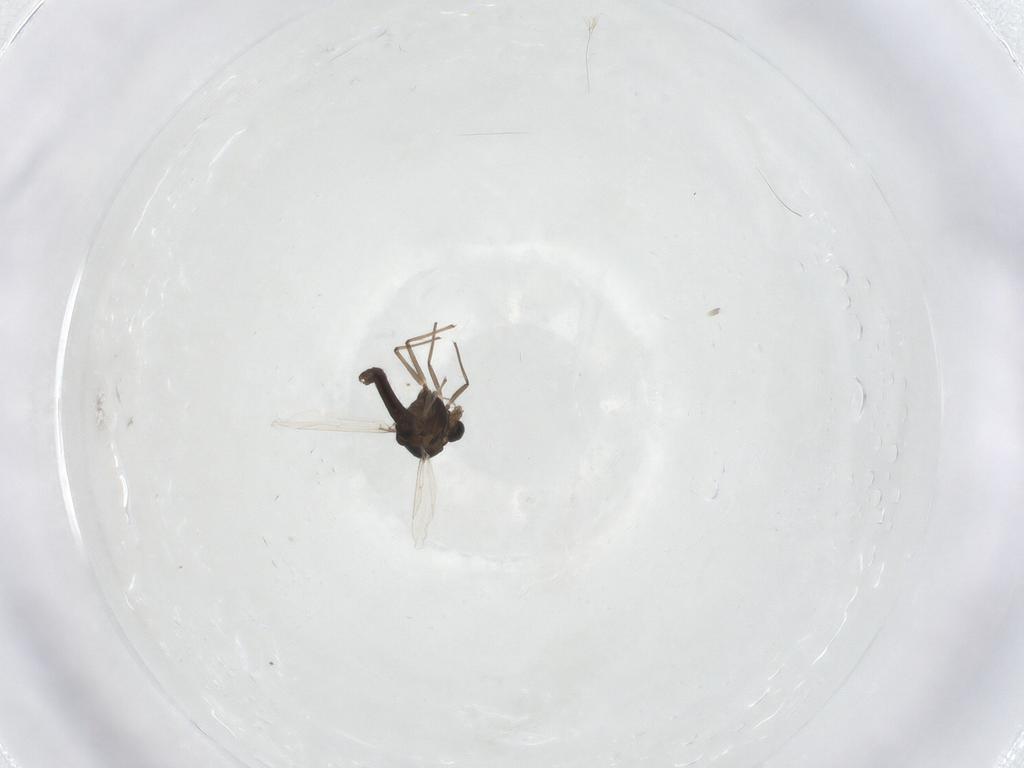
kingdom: Animalia
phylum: Arthropoda
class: Insecta
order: Diptera
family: Chironomidae
